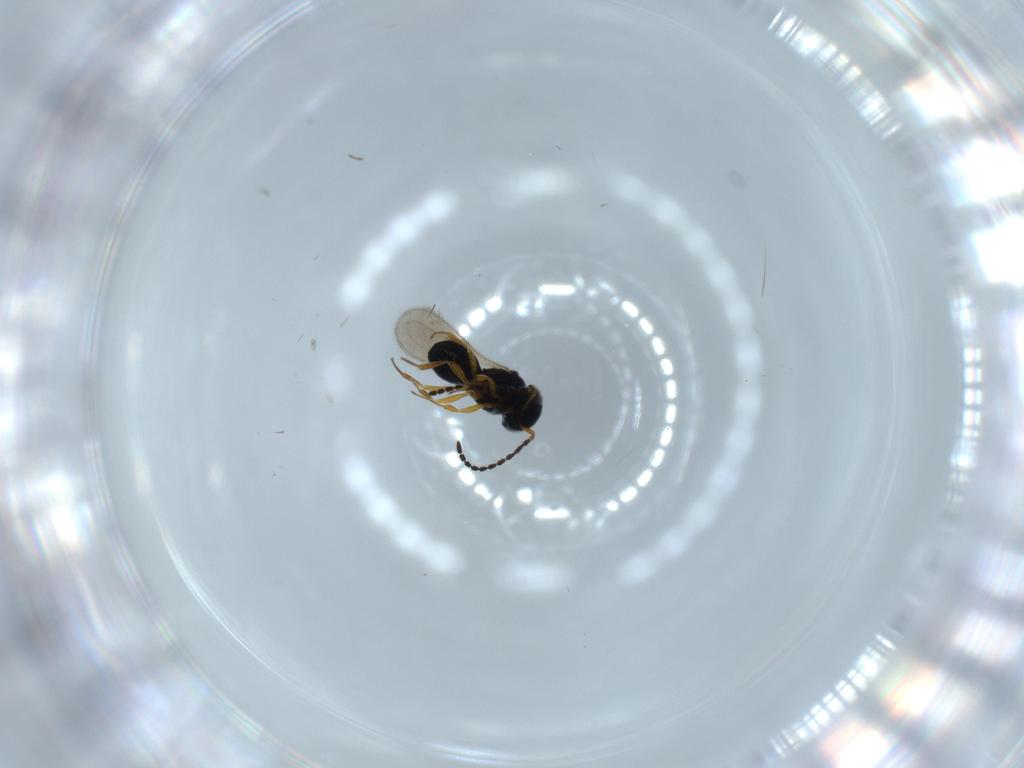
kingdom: Animalia
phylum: Arthropoda
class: Insecta
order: Hymenoptera
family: Scelionidae
